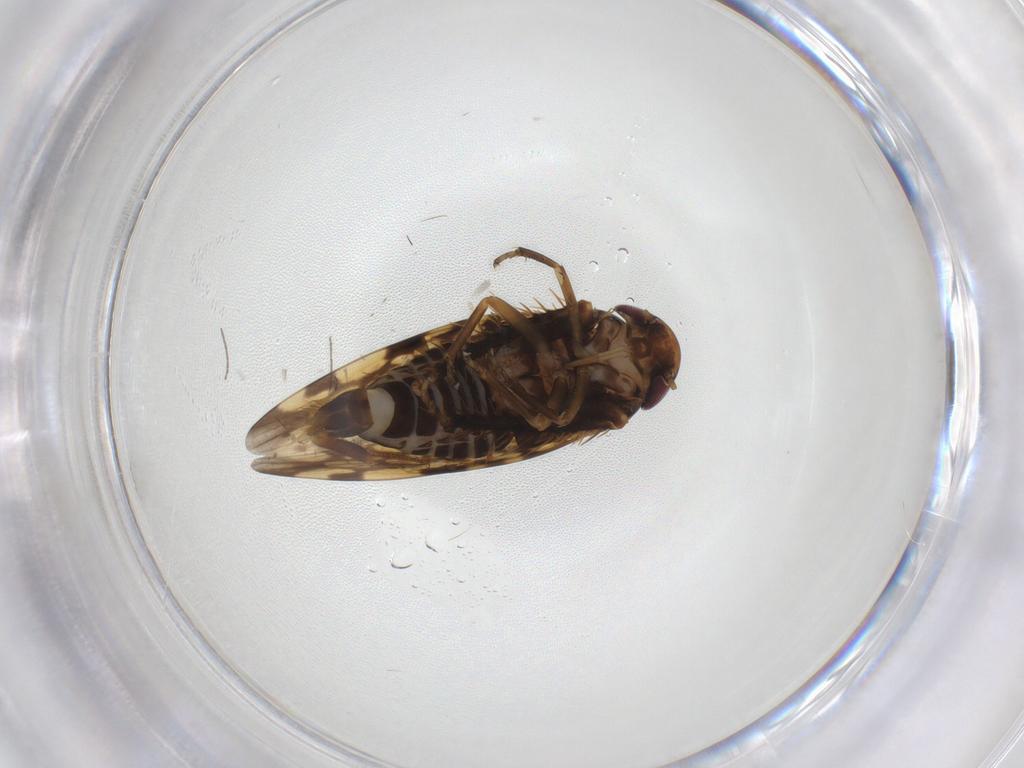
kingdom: Animalia
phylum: Arthropoda
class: Insecta
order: Hemiptera
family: Cicadellidae
